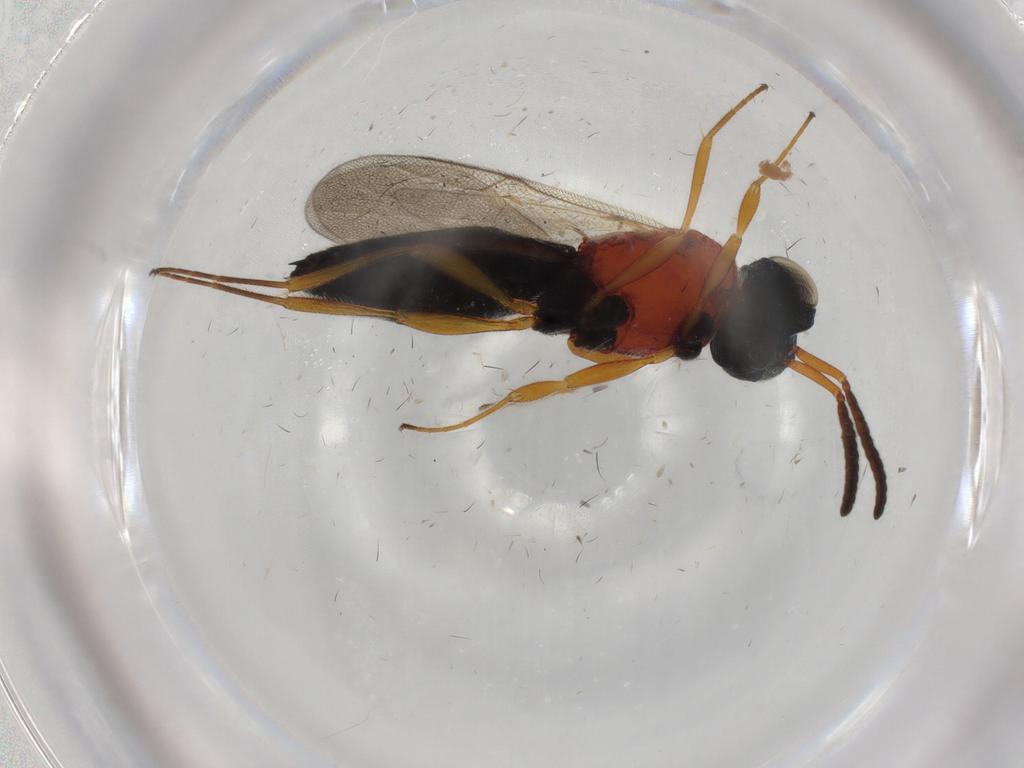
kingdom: Animalia
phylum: Arthropoda
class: Insecta
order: Hymenoptera
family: Scelionidae
